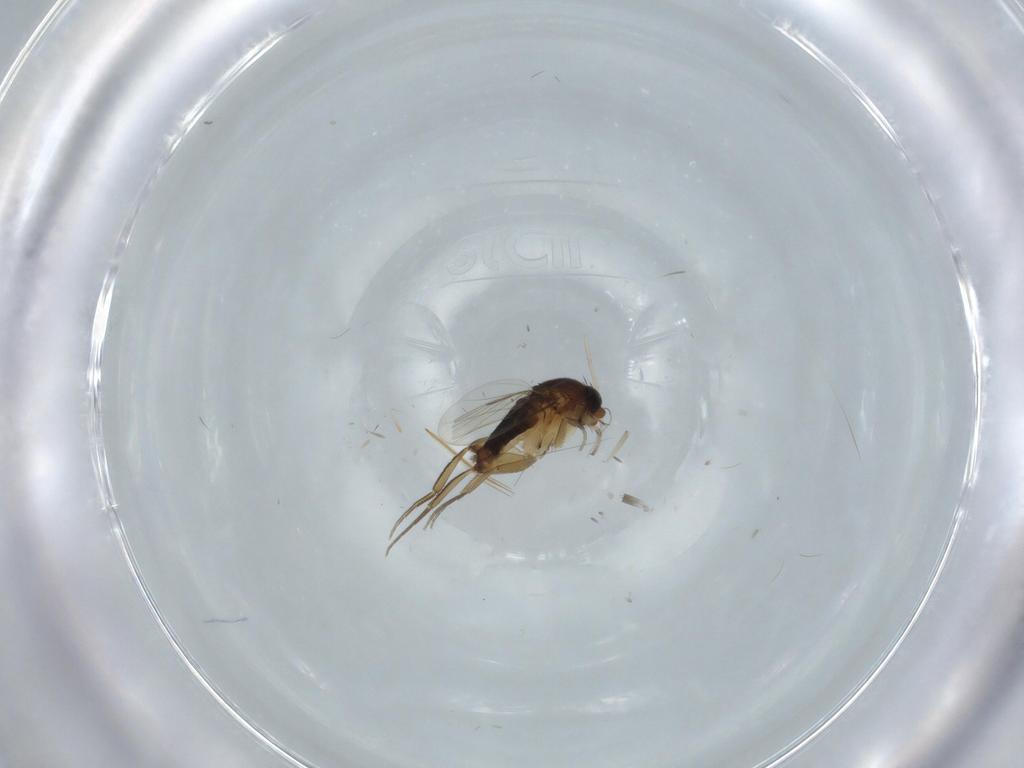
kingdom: Animalia
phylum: Arthropoda
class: Insecta
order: Diptera
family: Phoridae
